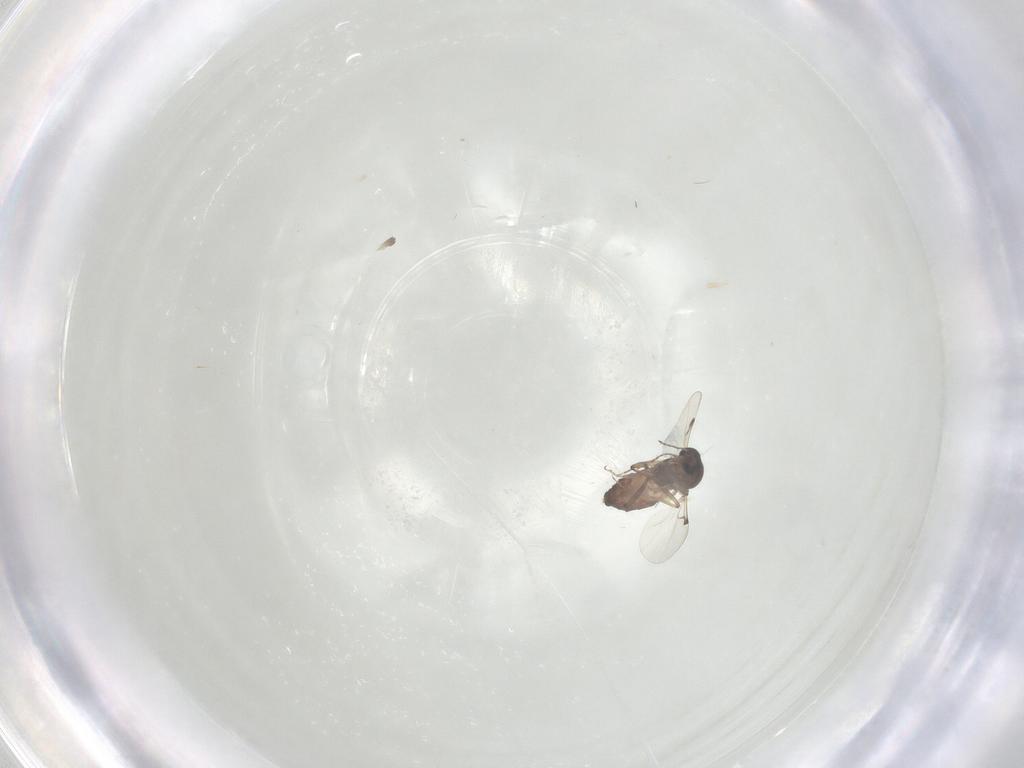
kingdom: Animalia
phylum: Arthropoda
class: Insecta
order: Diptera
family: Ceratopogonidae
